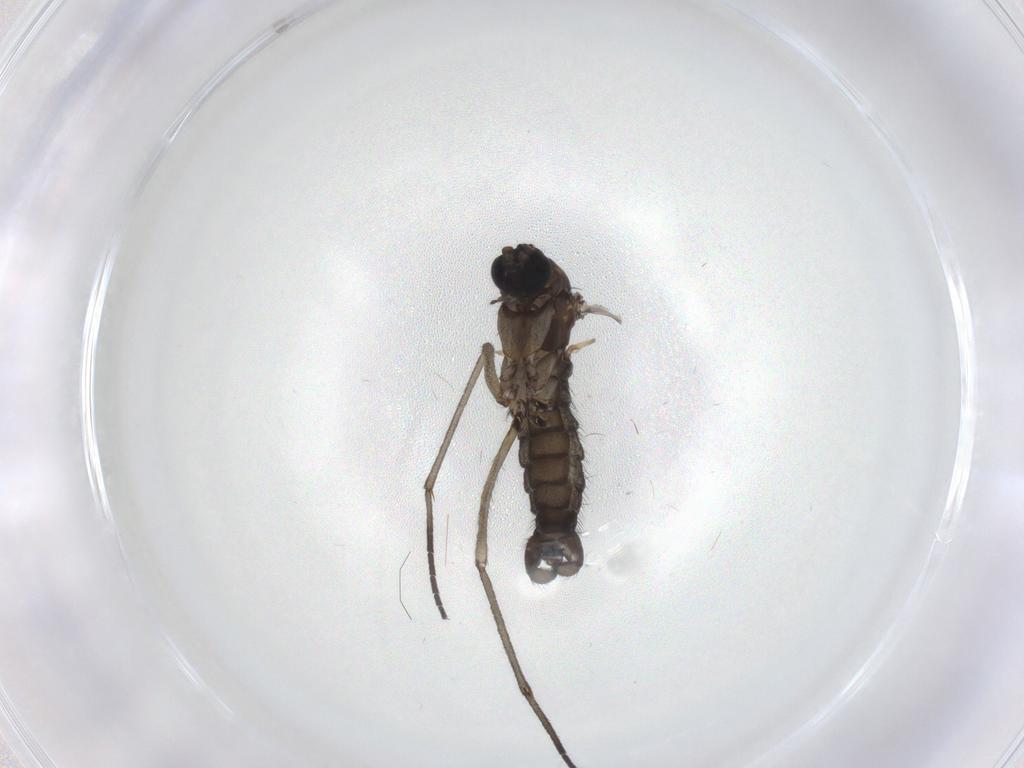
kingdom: Animalia
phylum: Arthropoda
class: Insecta
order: Diptera
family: Sciaridae
